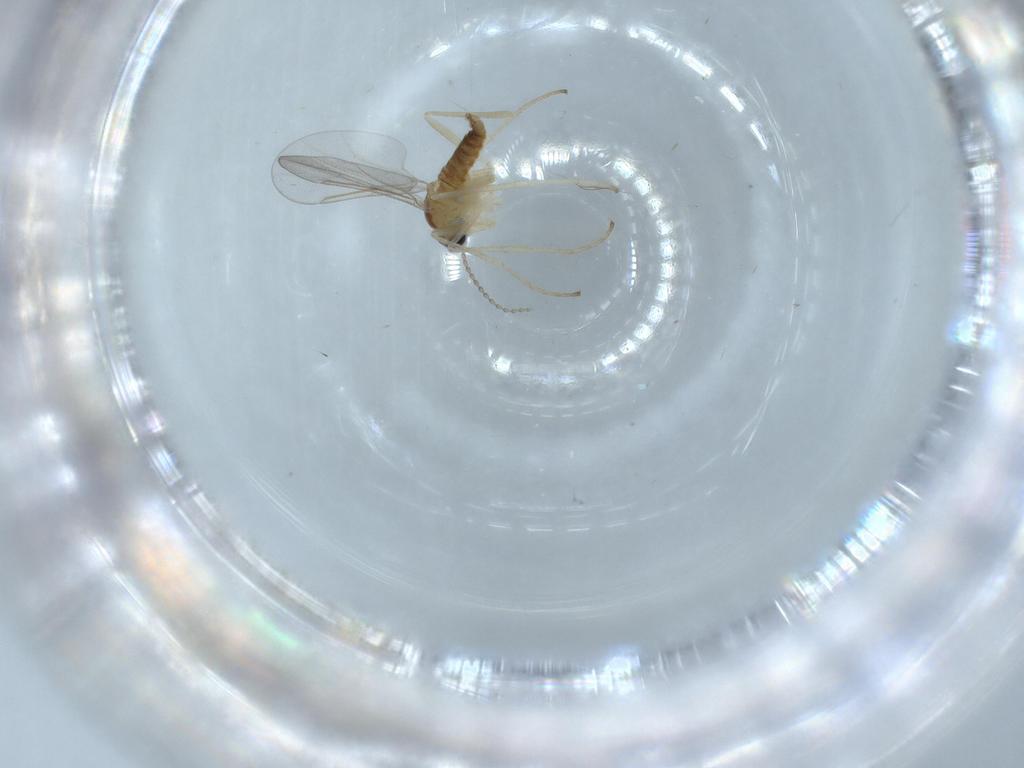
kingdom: Animalia
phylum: Arthropoda
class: Insecta
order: Diptera
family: Cecidomyiidae
